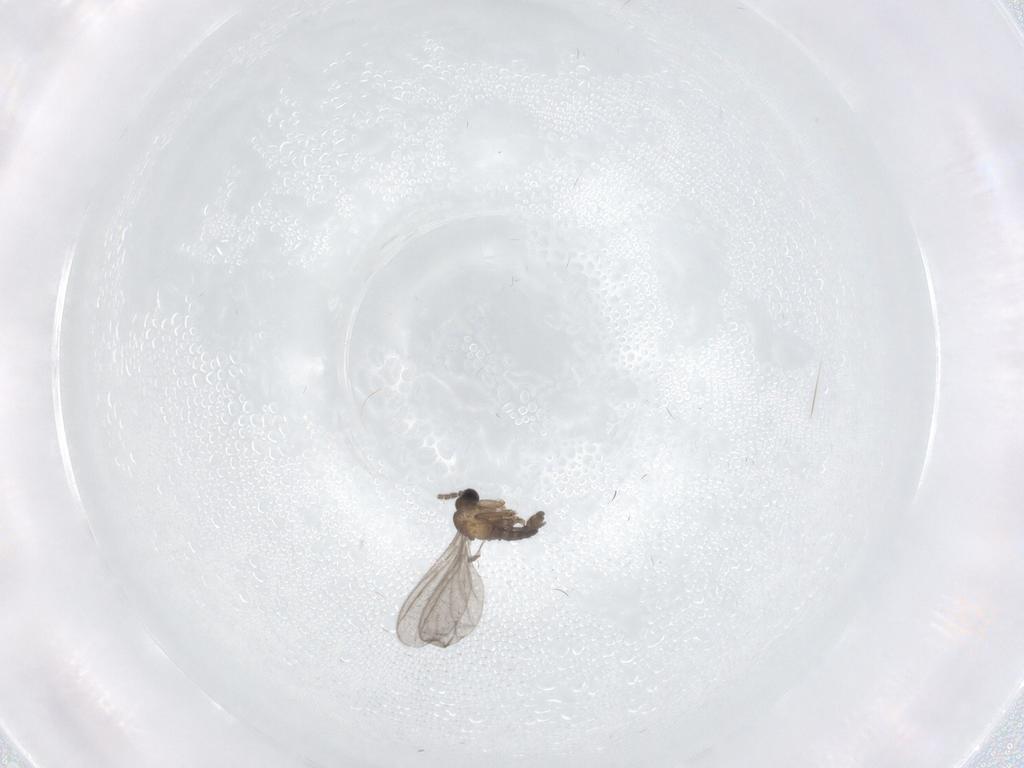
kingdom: Animalia
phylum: Arthropoda
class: Insecta
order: Diptera
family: Sciaridae
